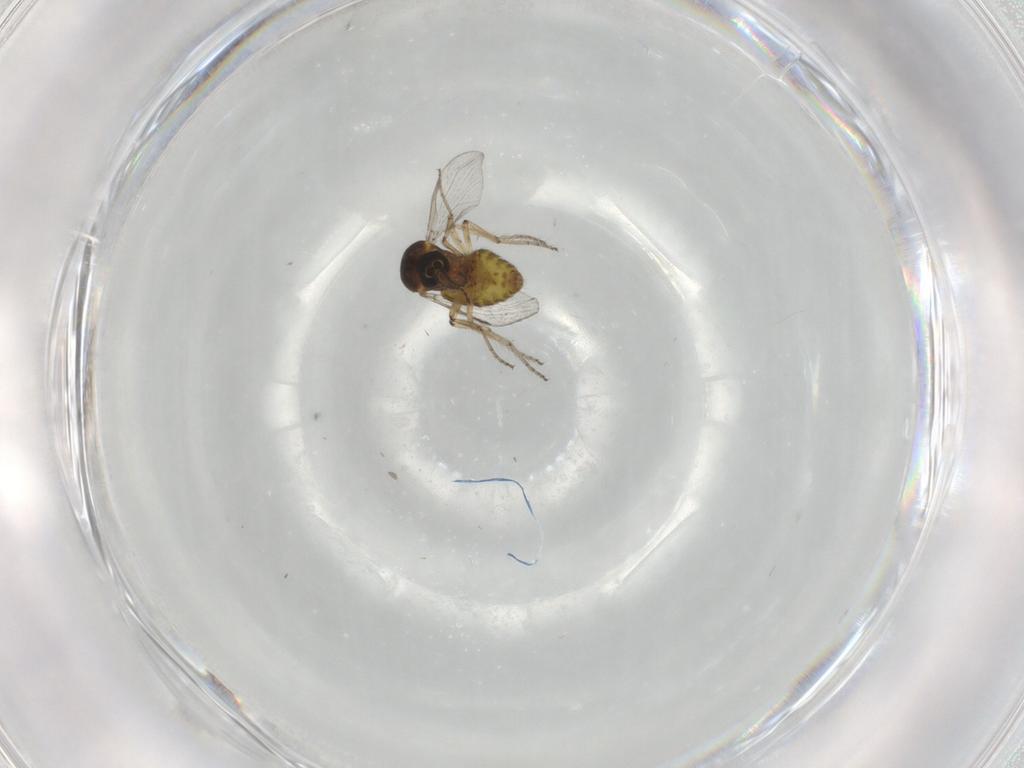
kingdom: Animalia
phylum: Arthropoda
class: Insecta
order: Diptera
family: Ceratopogonidae
